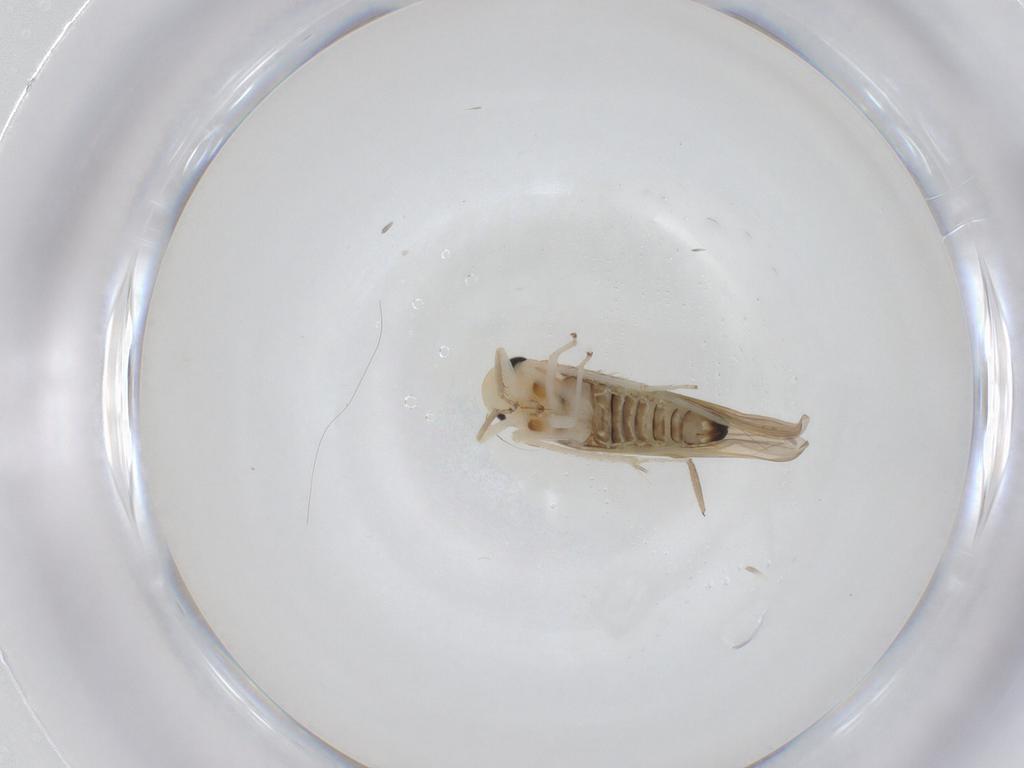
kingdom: Animalia
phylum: Arthropoda
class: Insecta
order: Hemiptera
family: Cicadellidae
